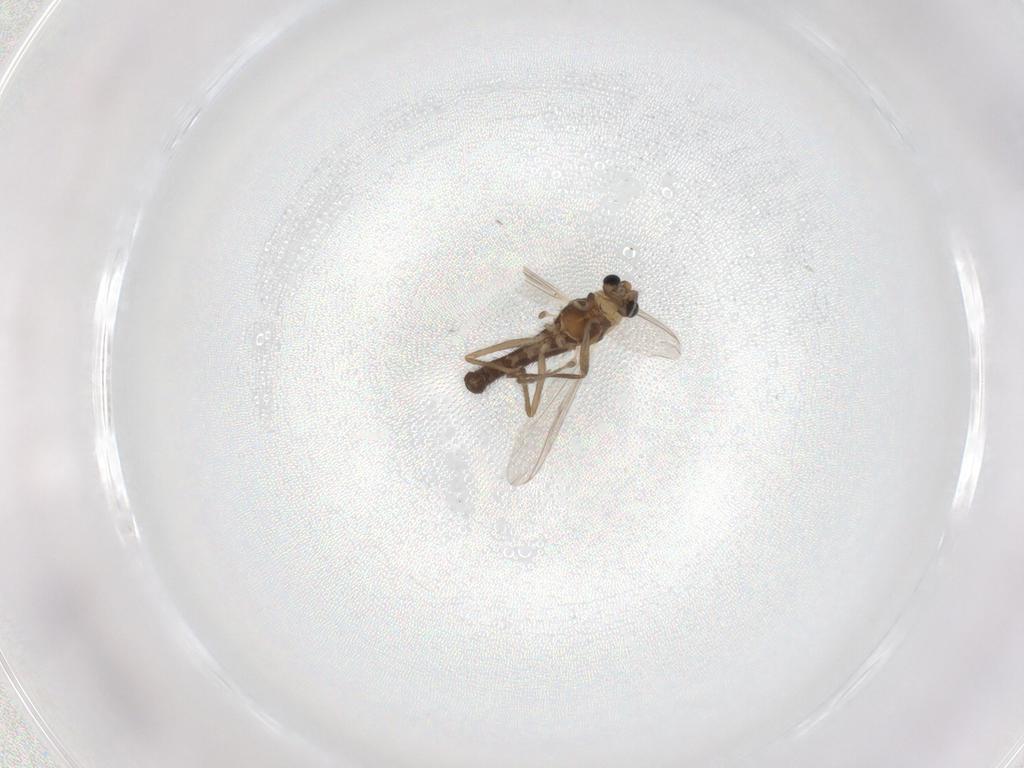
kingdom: Animalia
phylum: Arthropoda
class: Insecta
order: Diptera
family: Chironomidae
